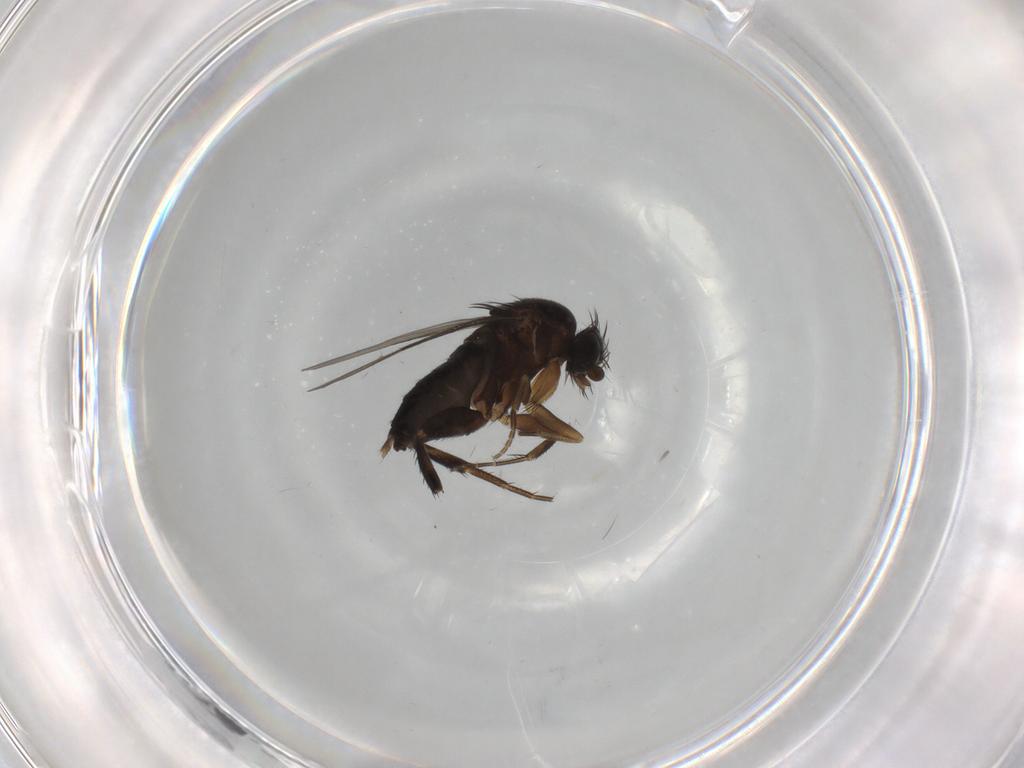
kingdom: Animalia
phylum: Arthropoda
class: Insecta
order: Diptera
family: Phoridae
